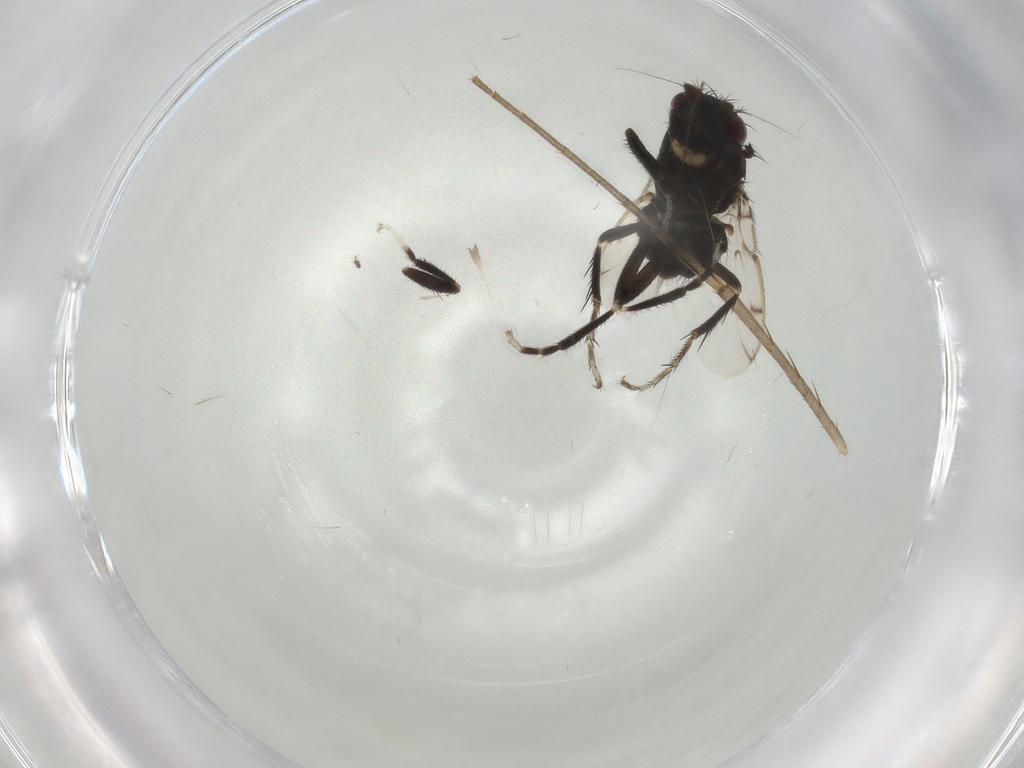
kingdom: Animalia
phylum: Arthropoda
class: Insecta
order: Diptera
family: Sphaeroceridae
